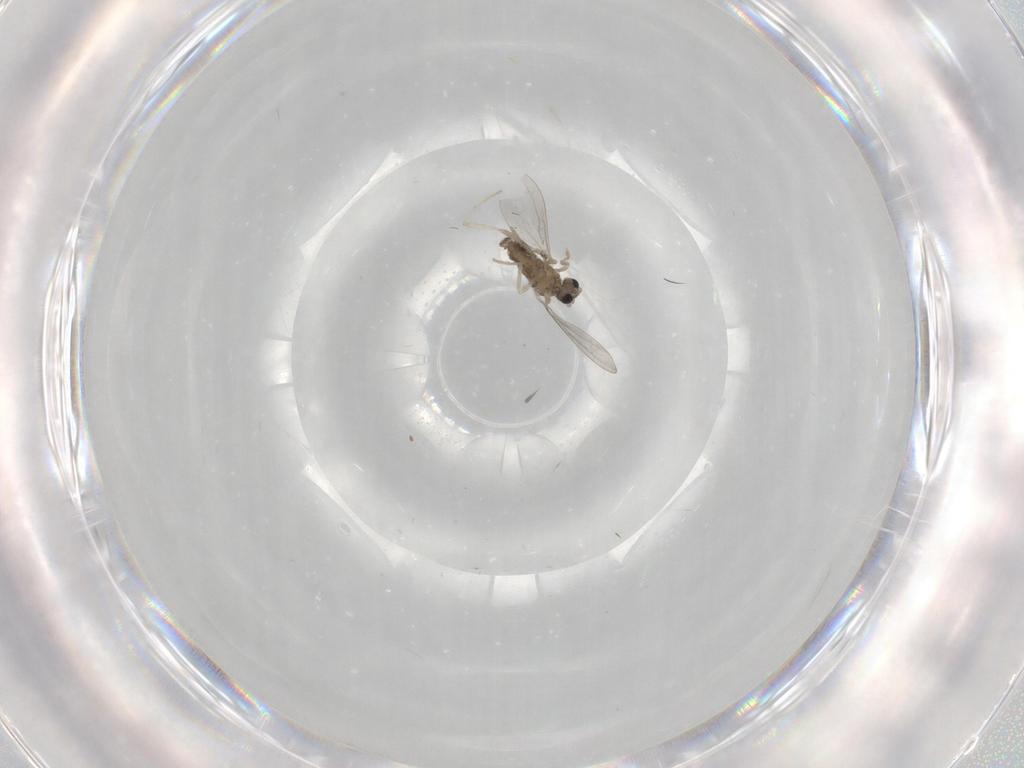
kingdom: Animalia
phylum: Arthropoda
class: Insecta
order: Diptera
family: Cecidomyiidae
